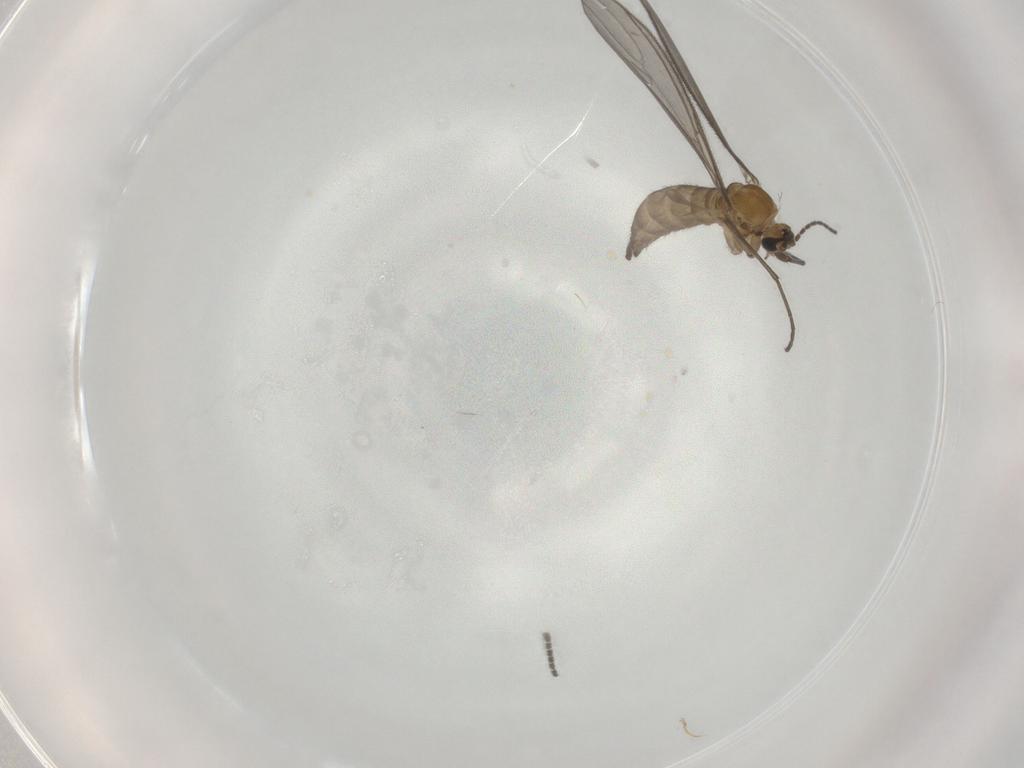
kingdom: Animalia
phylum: Arthropoda
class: Insecta
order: Diptera
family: Sciaridae
